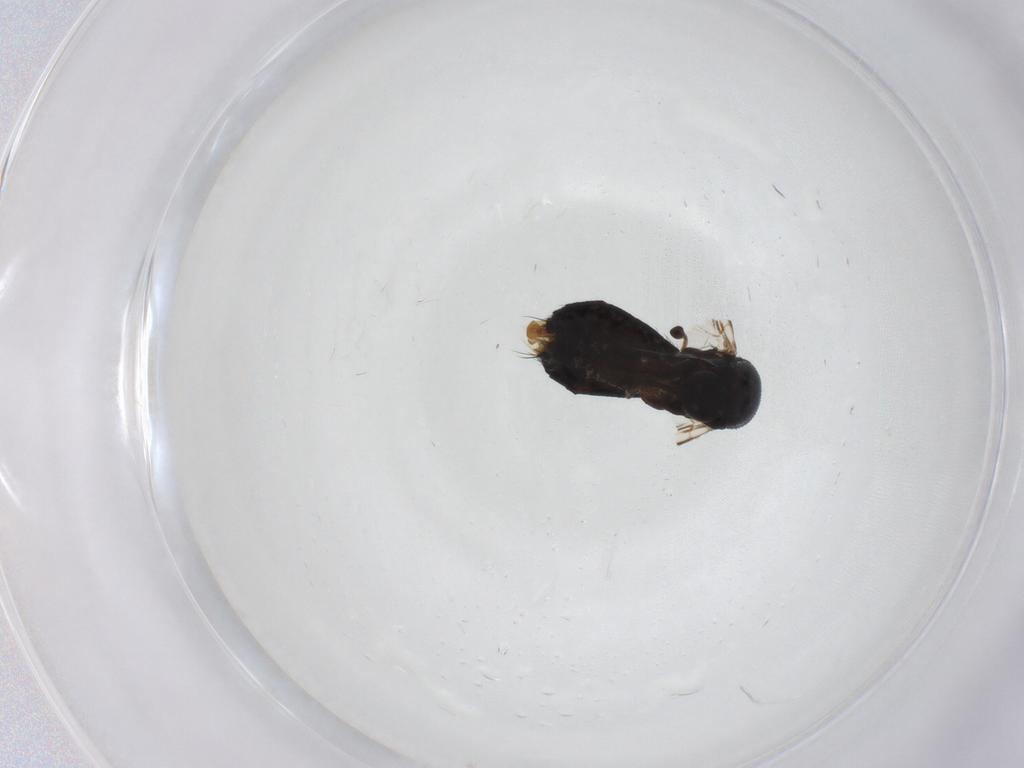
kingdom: Animalia
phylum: Arthropoda
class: Insecta
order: Diptera
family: Mycetophilidae
